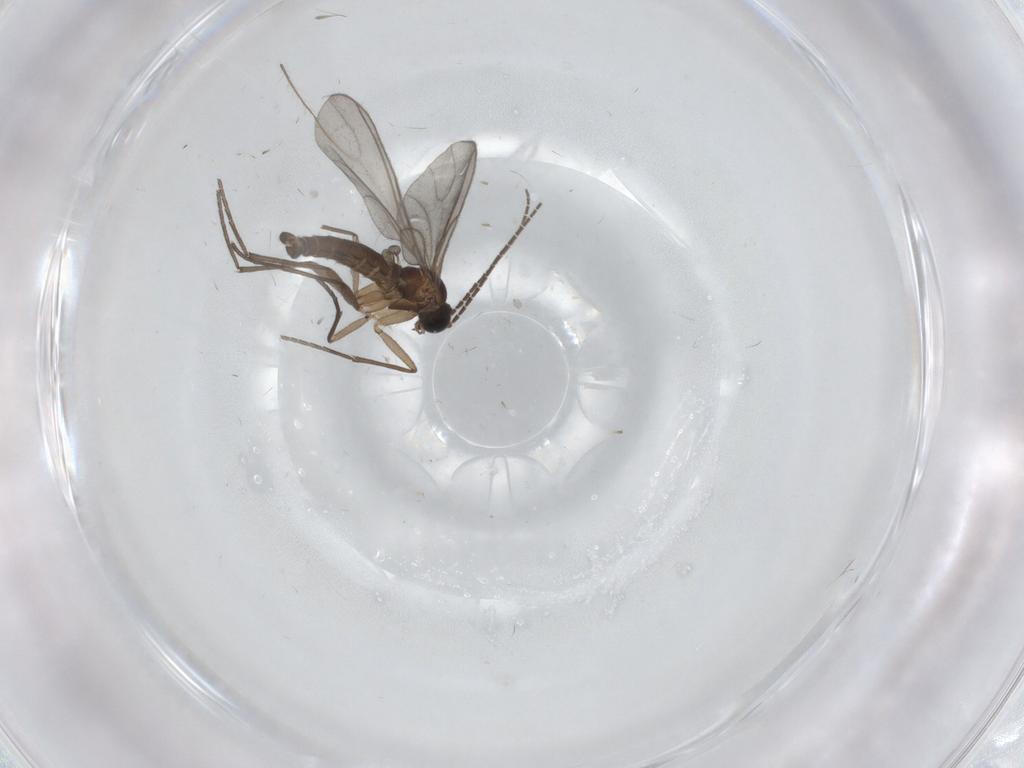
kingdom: Animalia
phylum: Arthropoda
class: Insecta
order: Diptera
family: Sciaridae
